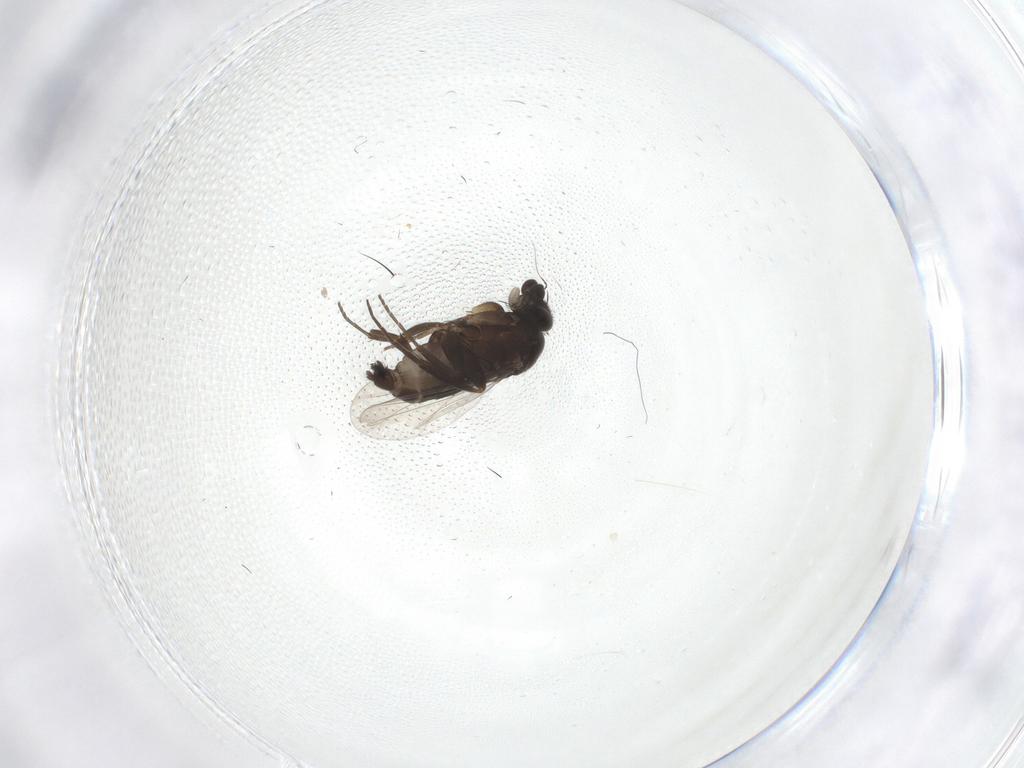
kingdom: Animalia
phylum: Arthropoda
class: Insecta
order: Diptera
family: Phoridae
